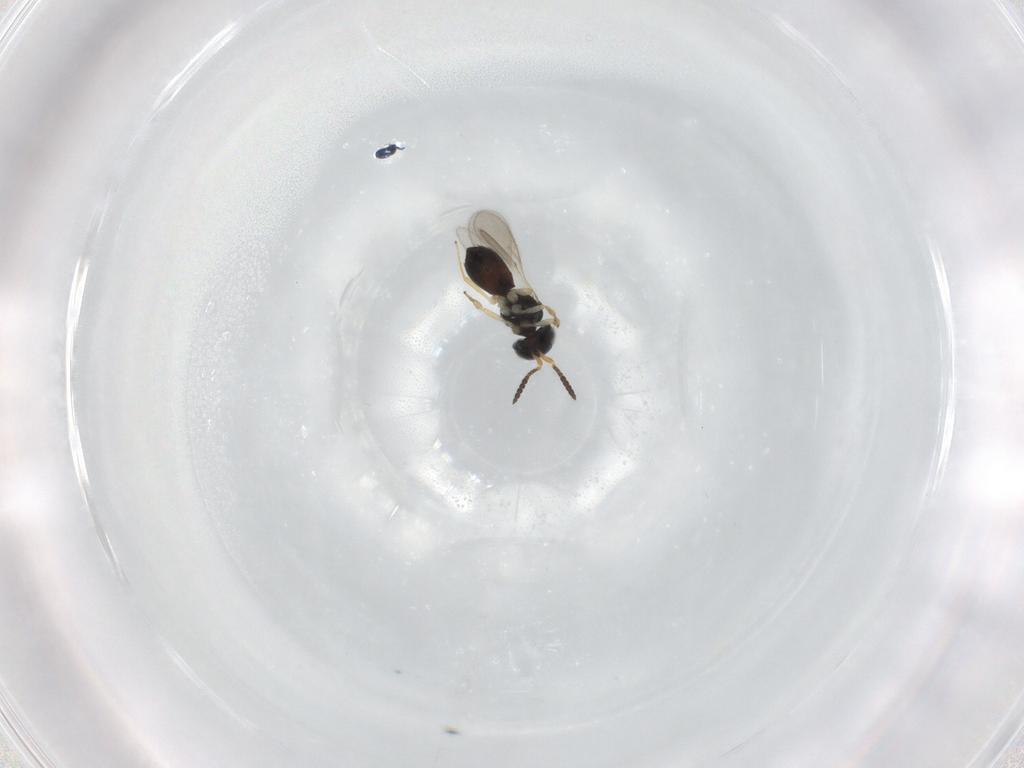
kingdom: Animalia
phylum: Arthropoda
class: Insecta
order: Hymenoptera
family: Scelionidae
